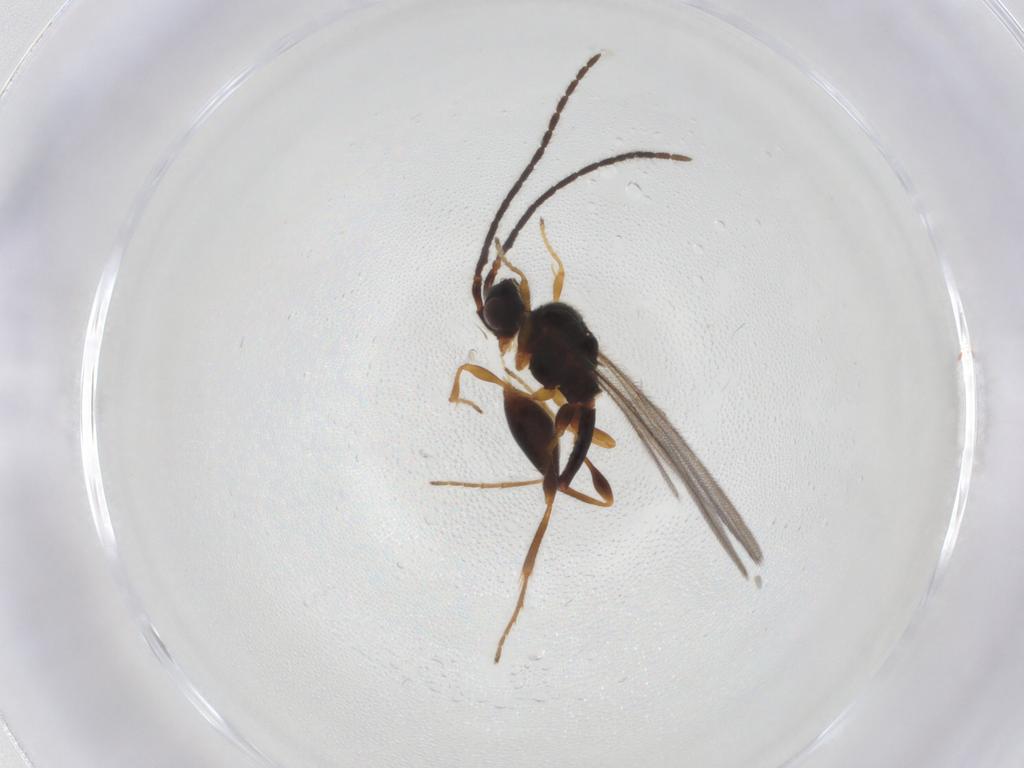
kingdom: Animalia
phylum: Arthropoda
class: Insecta
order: Hymenoptera
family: Diapriidae
